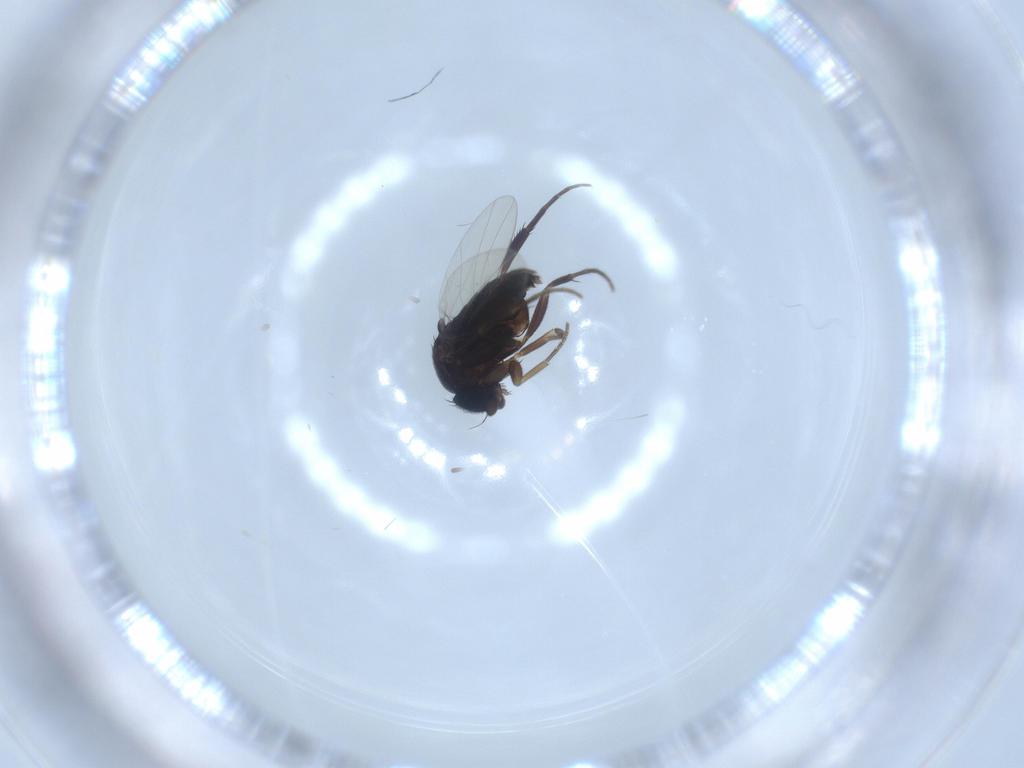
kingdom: Animalia
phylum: Arthropoda
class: Insecta
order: Diptera
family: Phoridae
